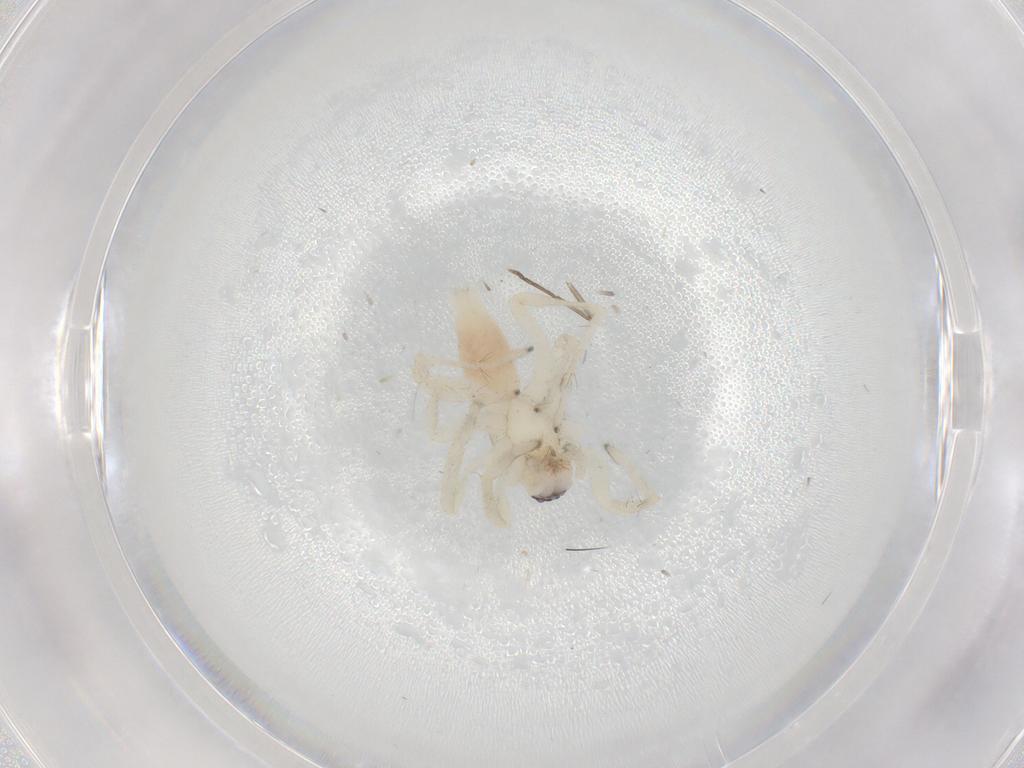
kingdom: Animalia
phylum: Arthropoda
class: Arachnida
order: Araneae
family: Clubionidae
